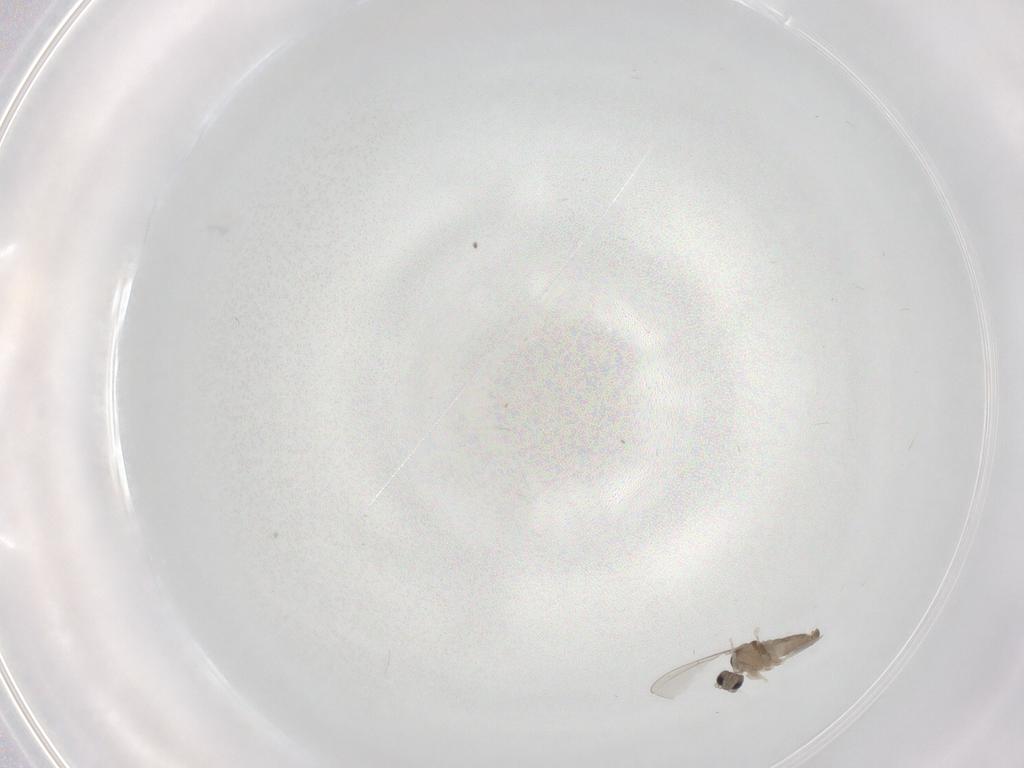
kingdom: Animalia
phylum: Arthropoda
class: Insecta
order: Diptera
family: Cecidomyiidae
